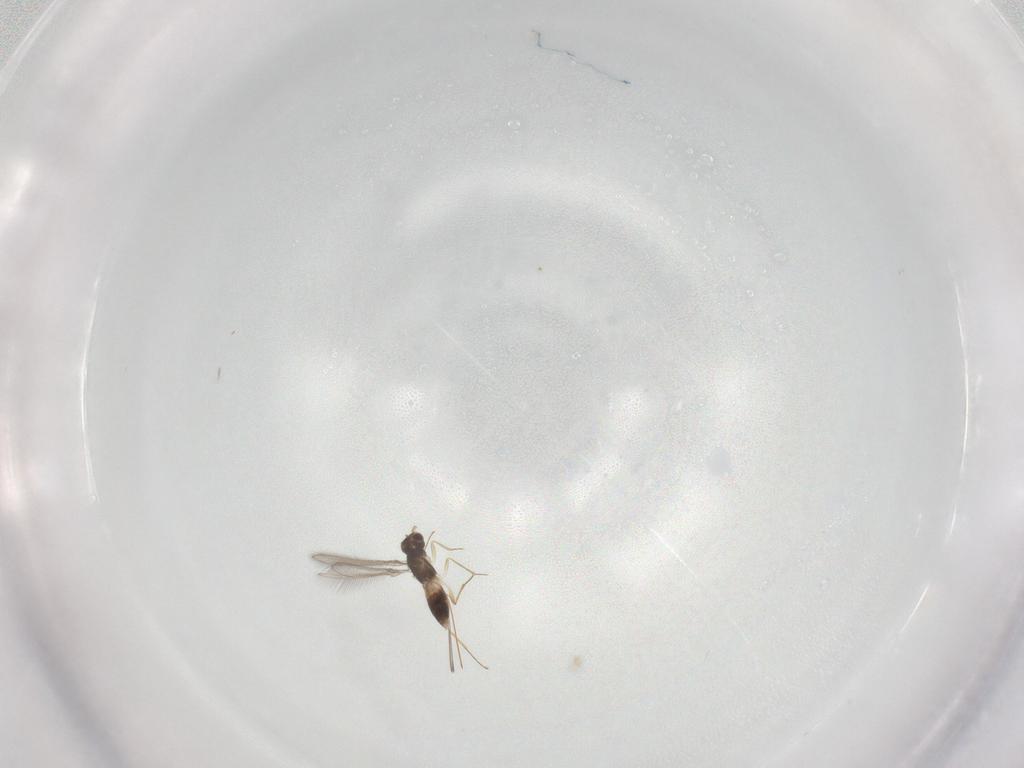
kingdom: Animalia
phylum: Arthropoda
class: Insecta
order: Hymenoptera
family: Mymaridae
